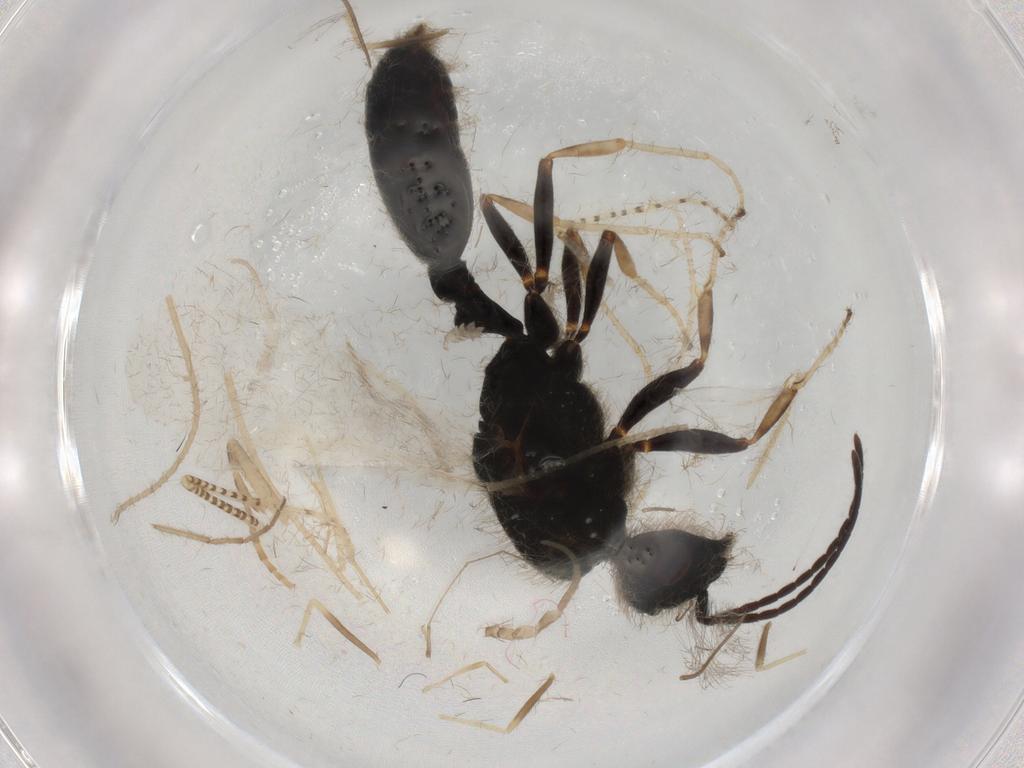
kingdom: Animalia
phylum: Arthropoda
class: Insecta
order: Hymenoptera
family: Formicidae
